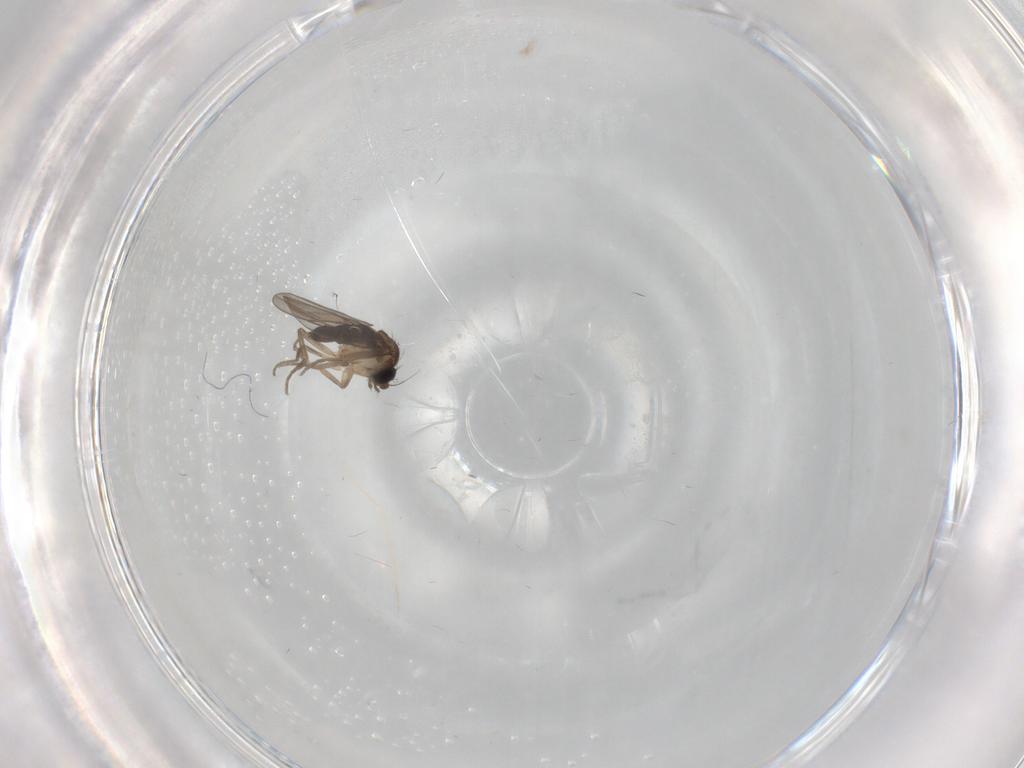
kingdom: Animalia
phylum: Arthropoda
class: Insecta
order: Diptera
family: Phoridae
